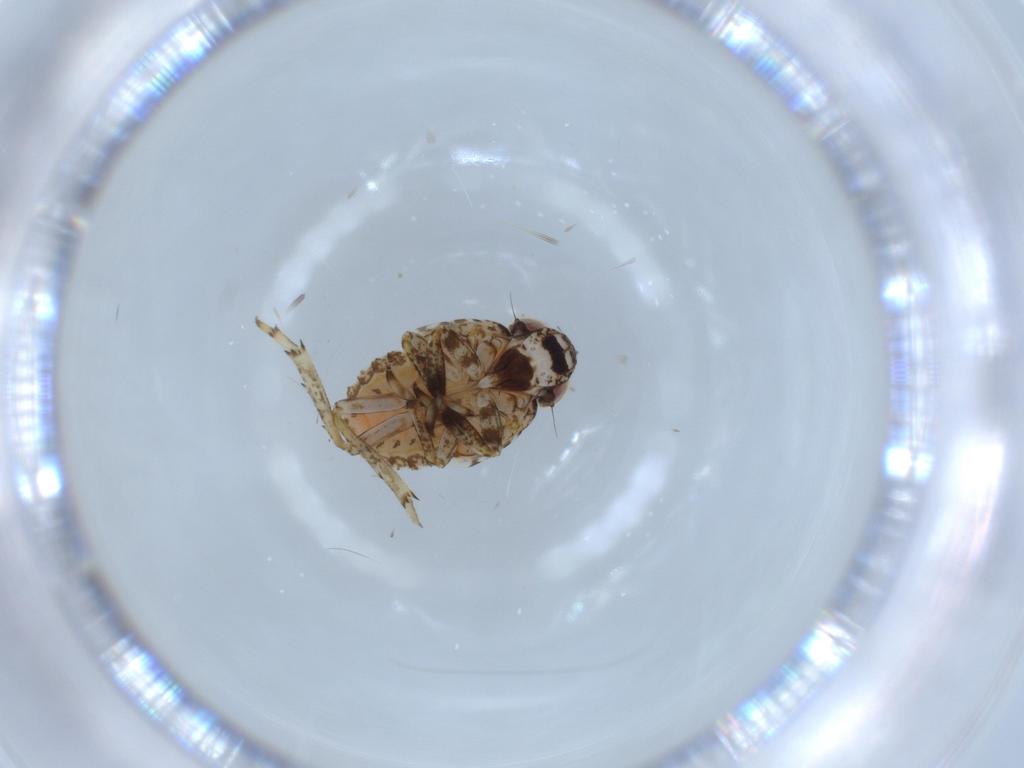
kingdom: Animalia
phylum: Arthropoda
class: Insecta
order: Hemiptera
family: Issidae
